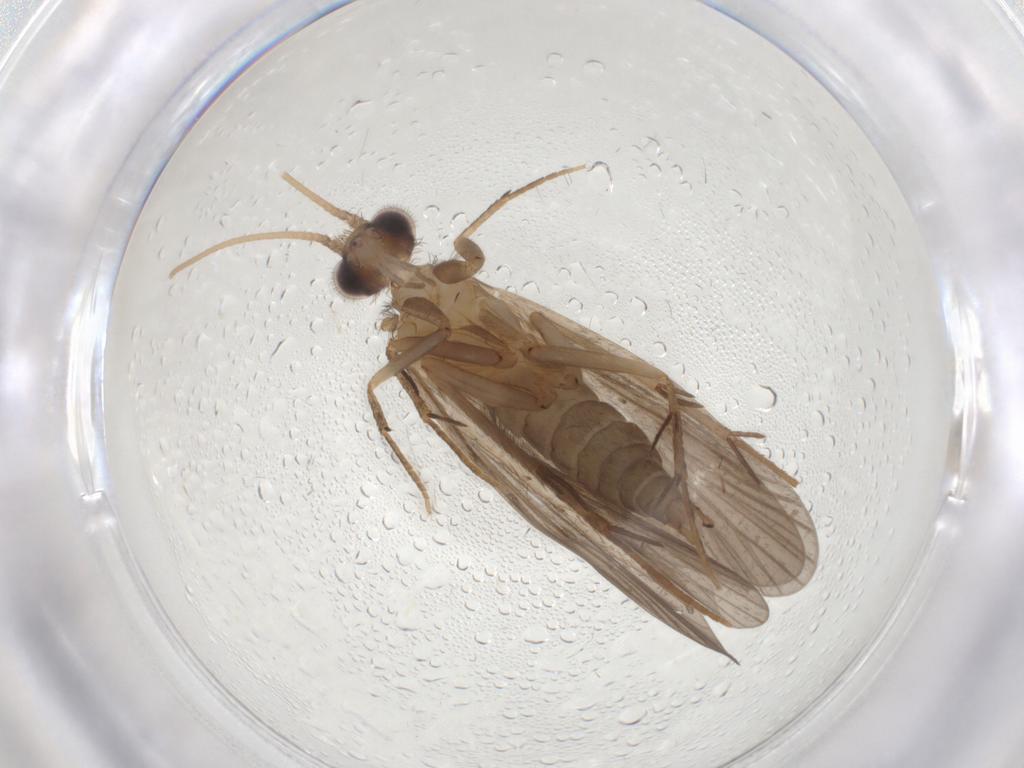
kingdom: Animalia
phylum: Arthropoda
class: Insecta
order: Trichoptera
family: Philopotamidae
